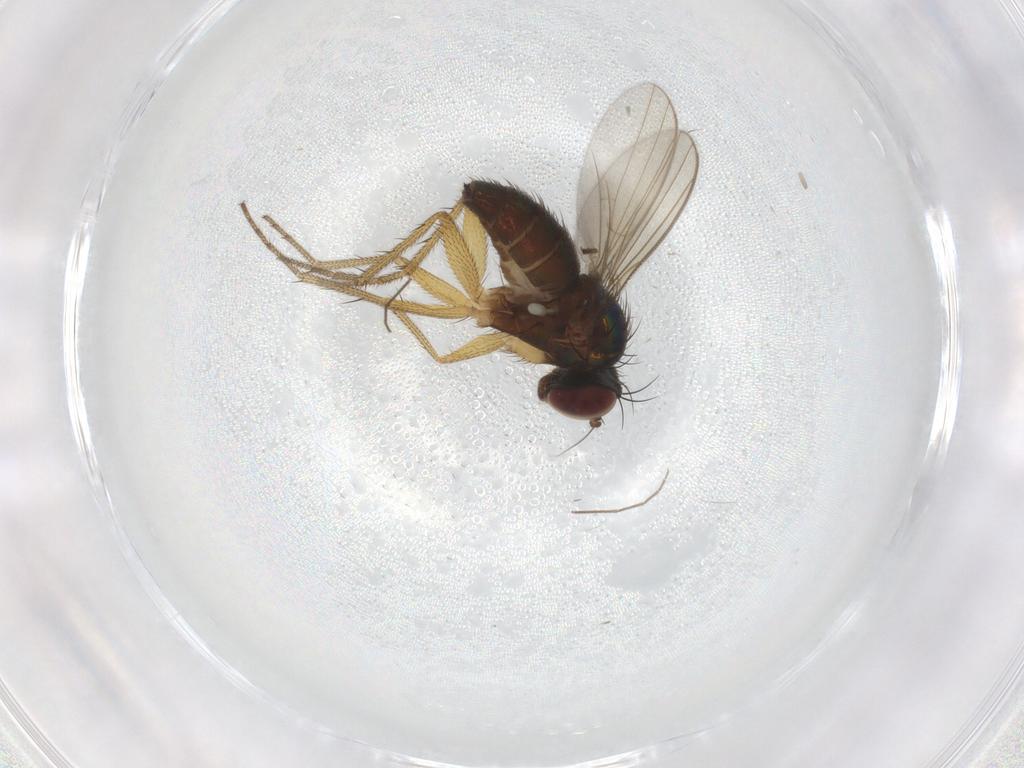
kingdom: Animalia
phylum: Arthropoda
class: Insecta
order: Diptera
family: Dolichopodidae
